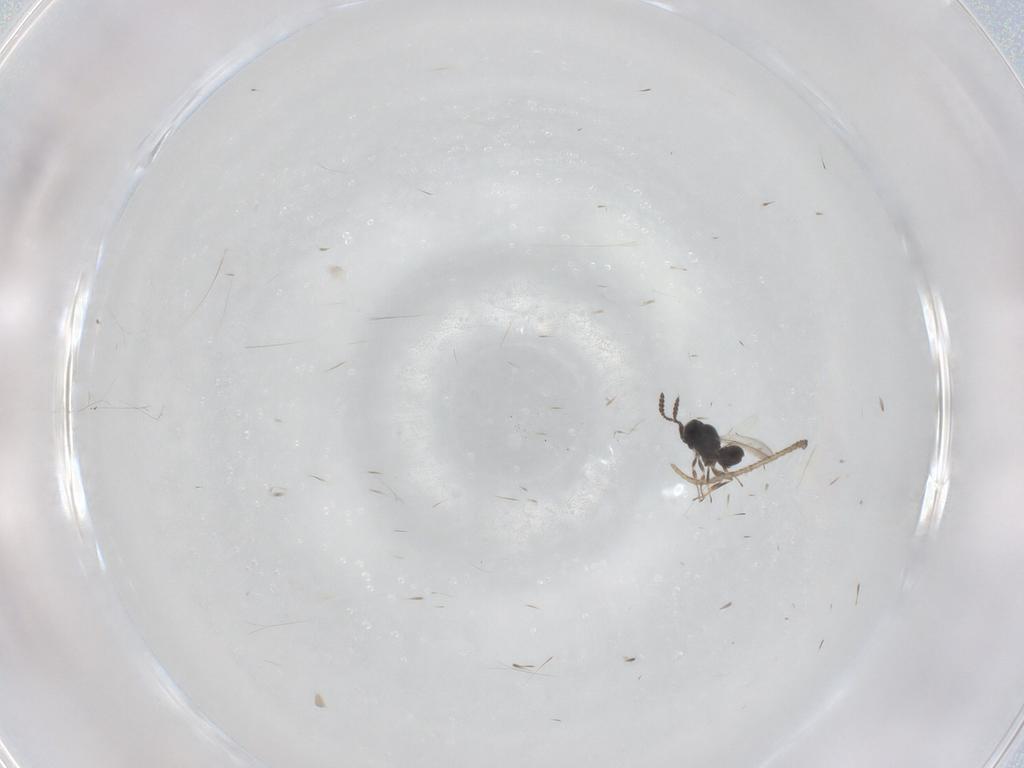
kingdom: Animalia
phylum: Arthropoda
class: Insecta
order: Hymenoptera
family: Scelionidae
